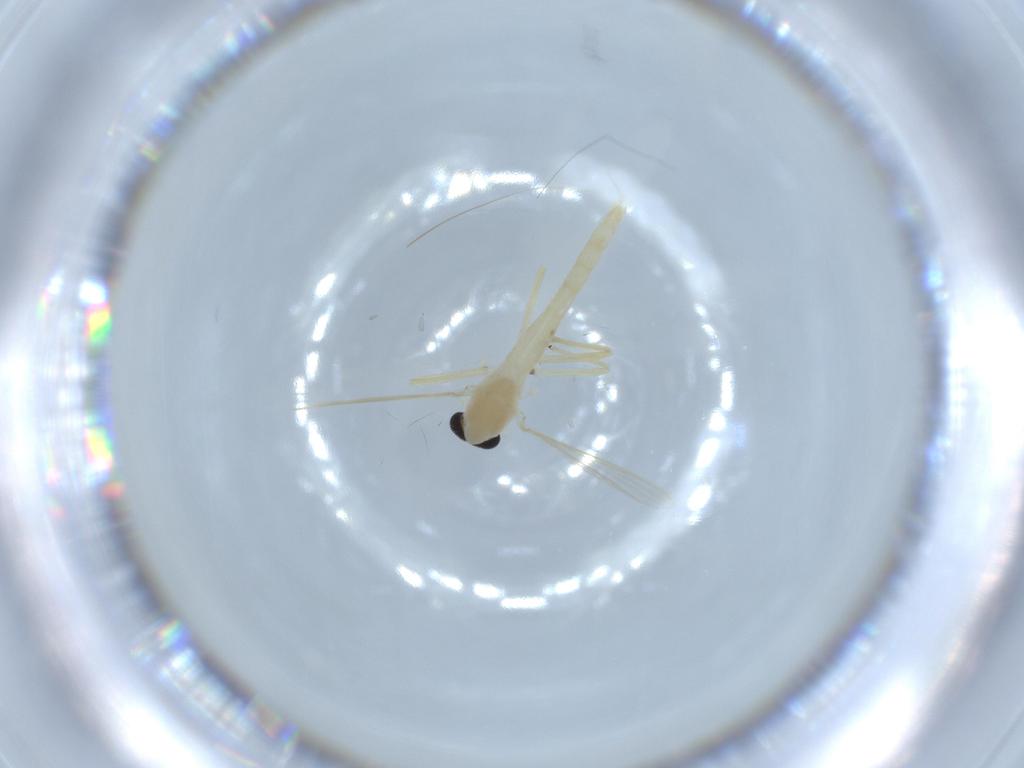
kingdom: Animalia
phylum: Arthropoda
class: Insecta
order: Diptera
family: Chironomidae
